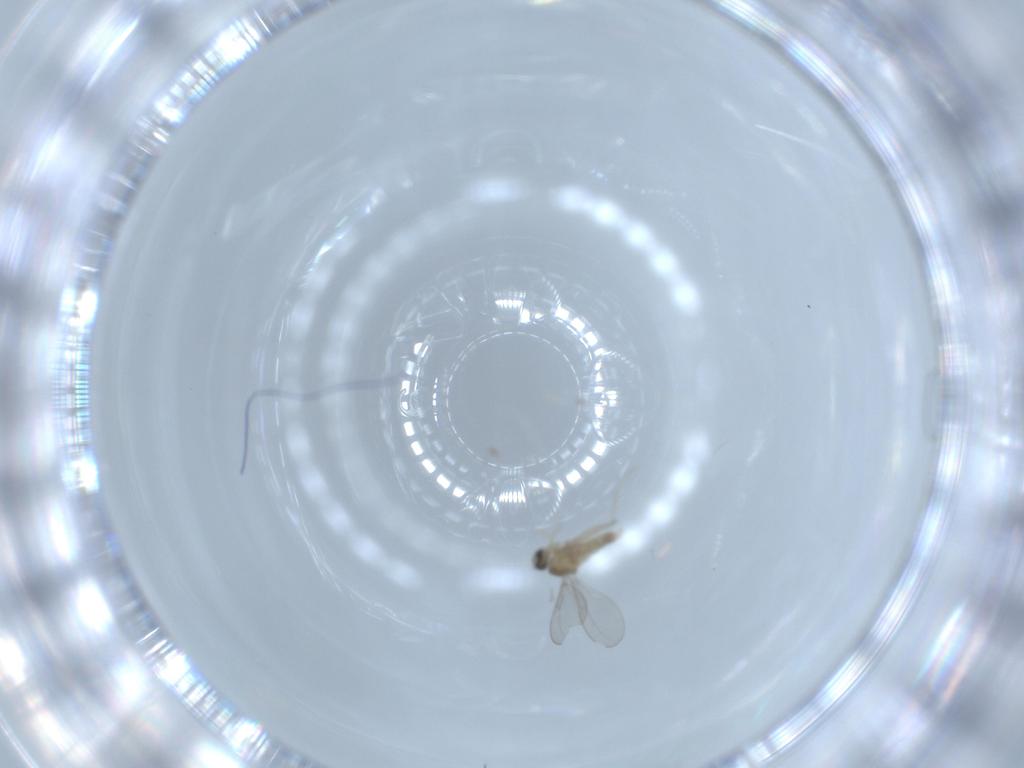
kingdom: Animalia
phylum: Arthropoda
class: Insecta
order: Diptera
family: Cecidomyiidae
